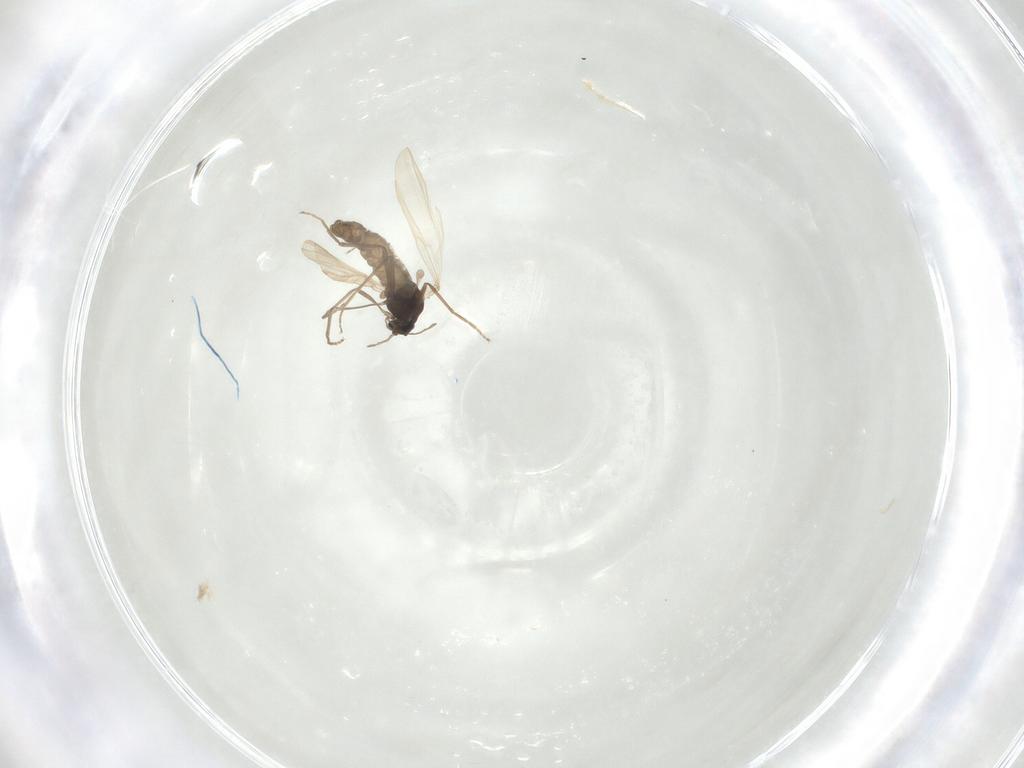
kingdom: Animalia
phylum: Arthropoda
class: Insecta
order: Diptera
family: Chironomidae
